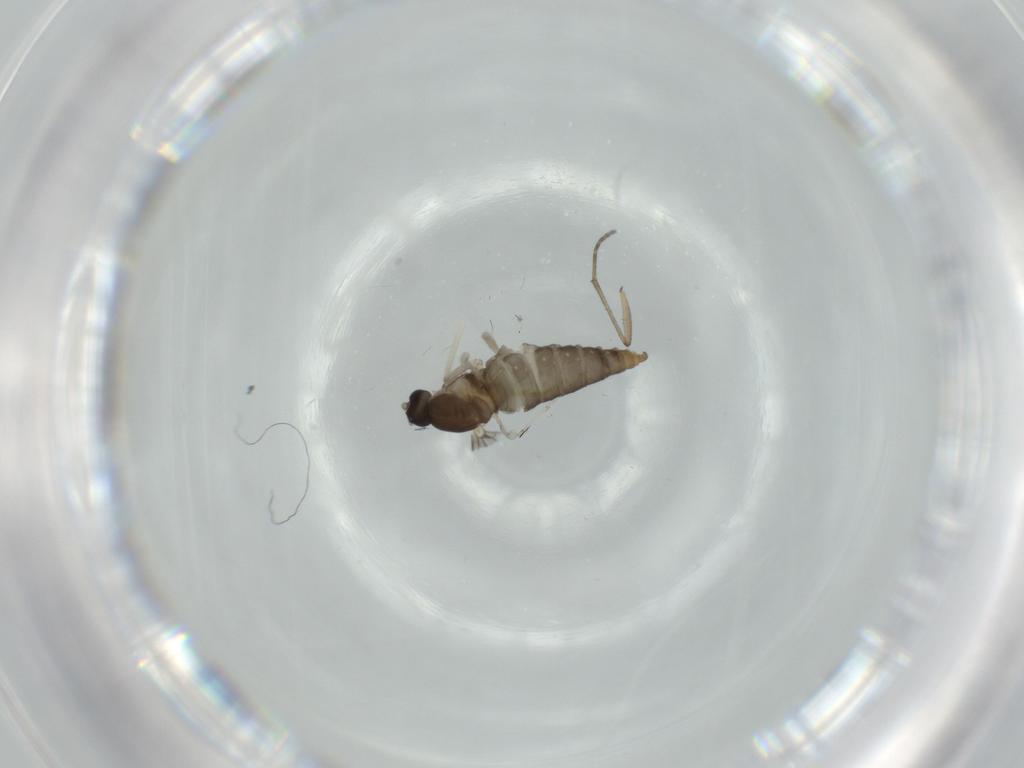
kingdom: Animalia
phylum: Arthropoda
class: Insecta
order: Diptera
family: Cecidomyiidae
